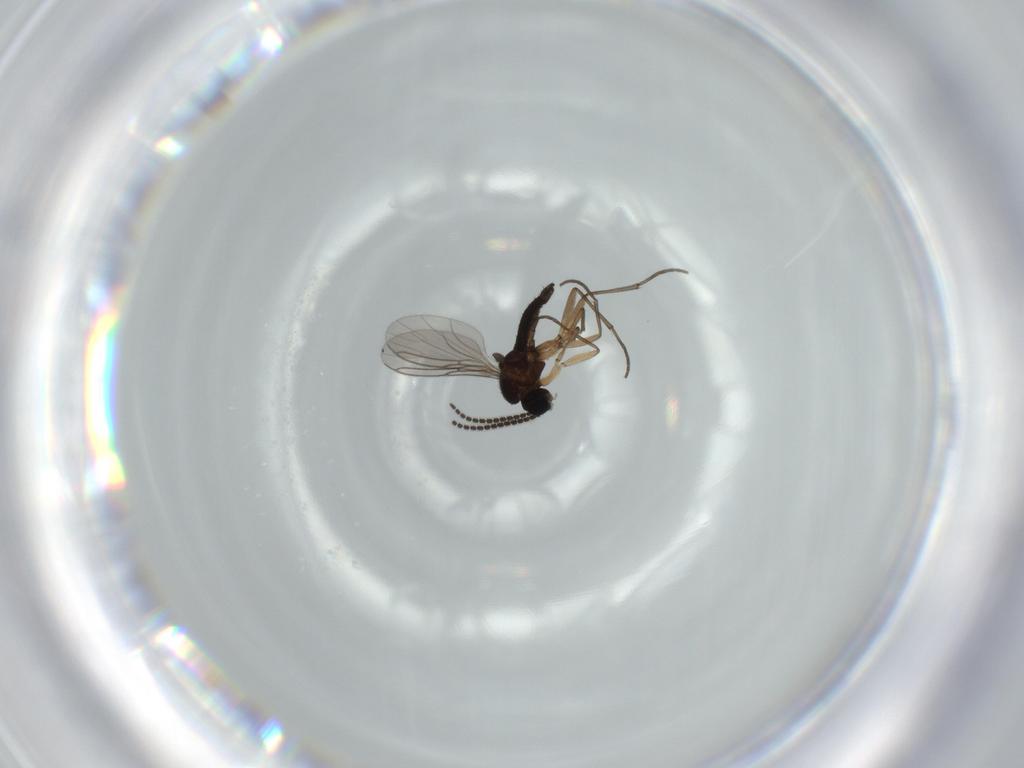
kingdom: Animalia
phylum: Arthropoda
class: Insecta
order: Diptera
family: Sciaridae
